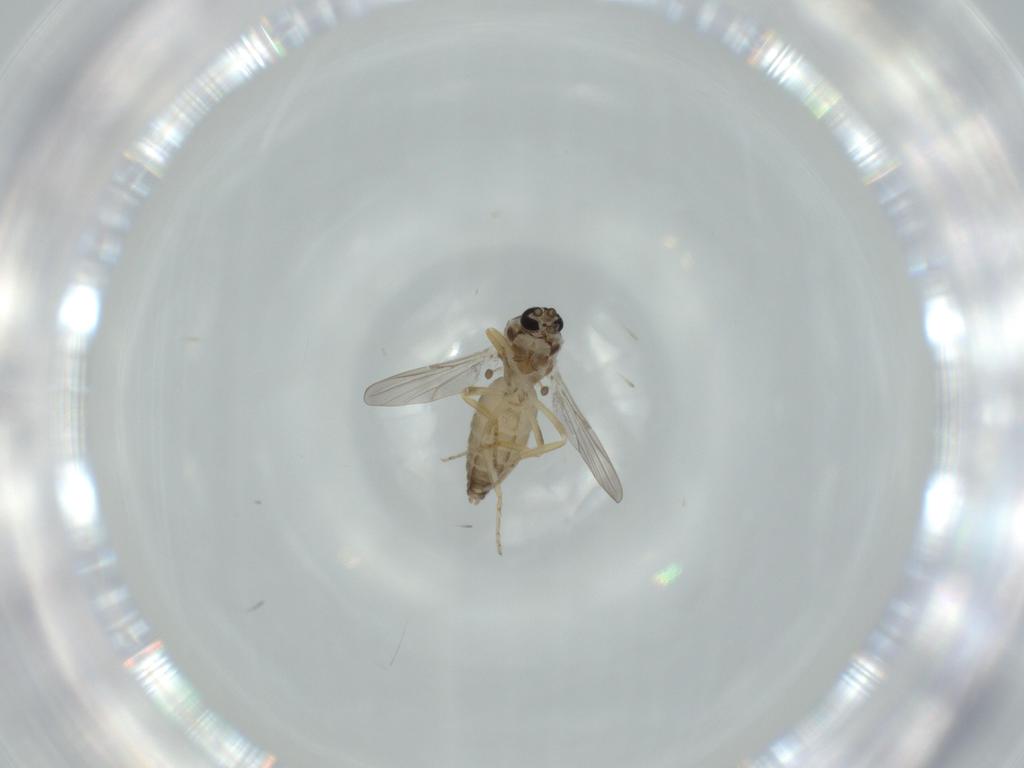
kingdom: Animalia
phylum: Arthropoda
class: Insecta
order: Diptera
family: Ceratopogonidae
